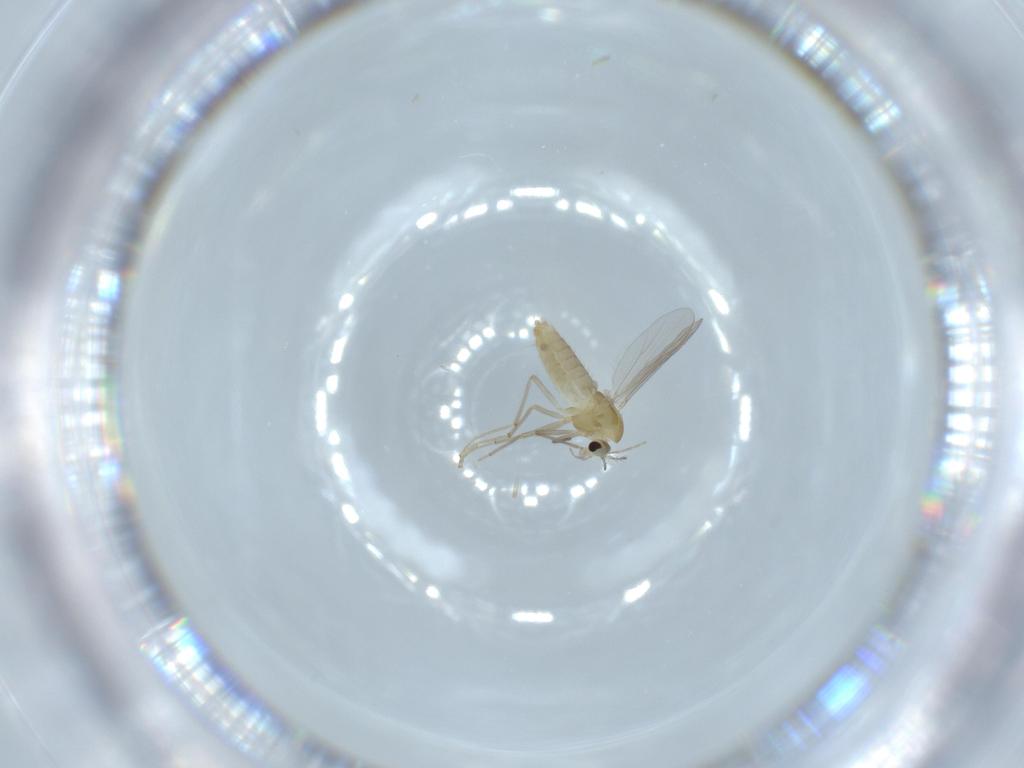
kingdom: Animalia
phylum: Arthropoda
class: Insecta
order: Diptera
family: Chironomidae
